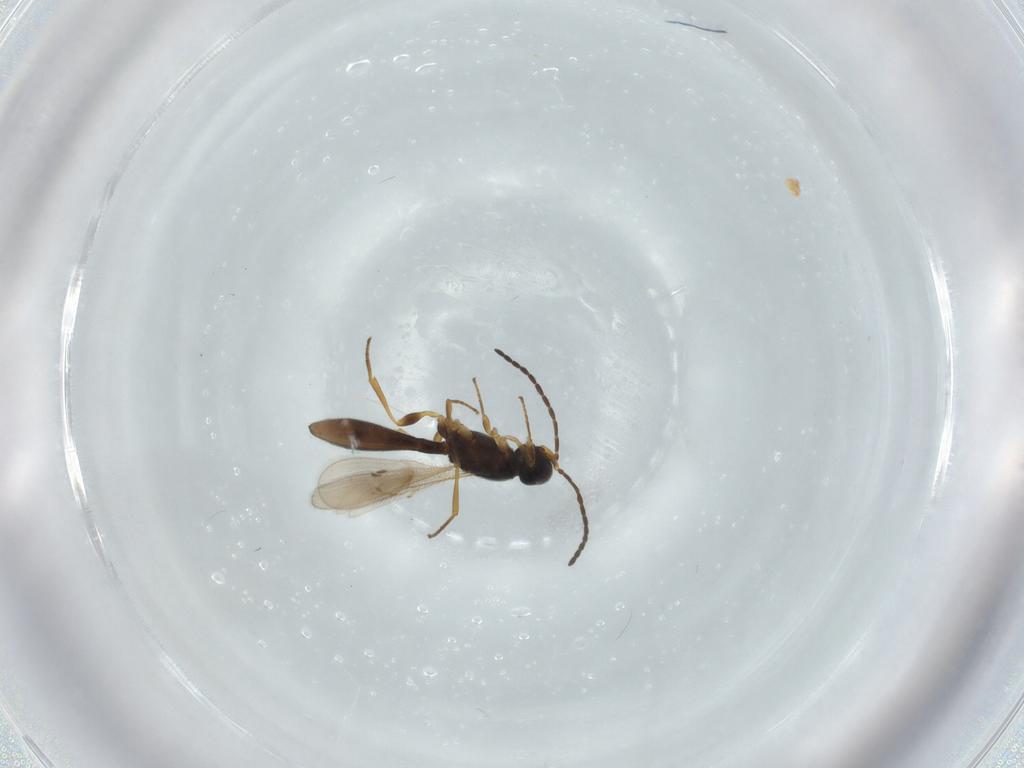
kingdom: Animalia
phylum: Arthropoda
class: Insecta
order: Hymenoptera
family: Scelionidae
